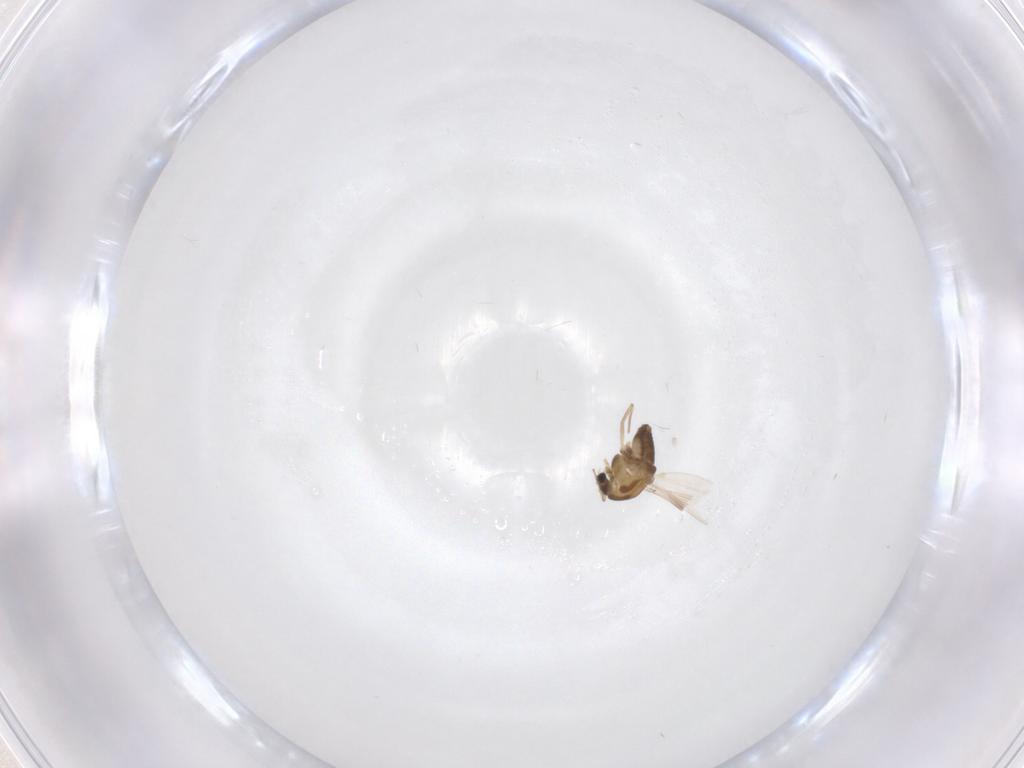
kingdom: Animalia
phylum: Arthropoda
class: Insecta
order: Diptera
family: Chironomidae
